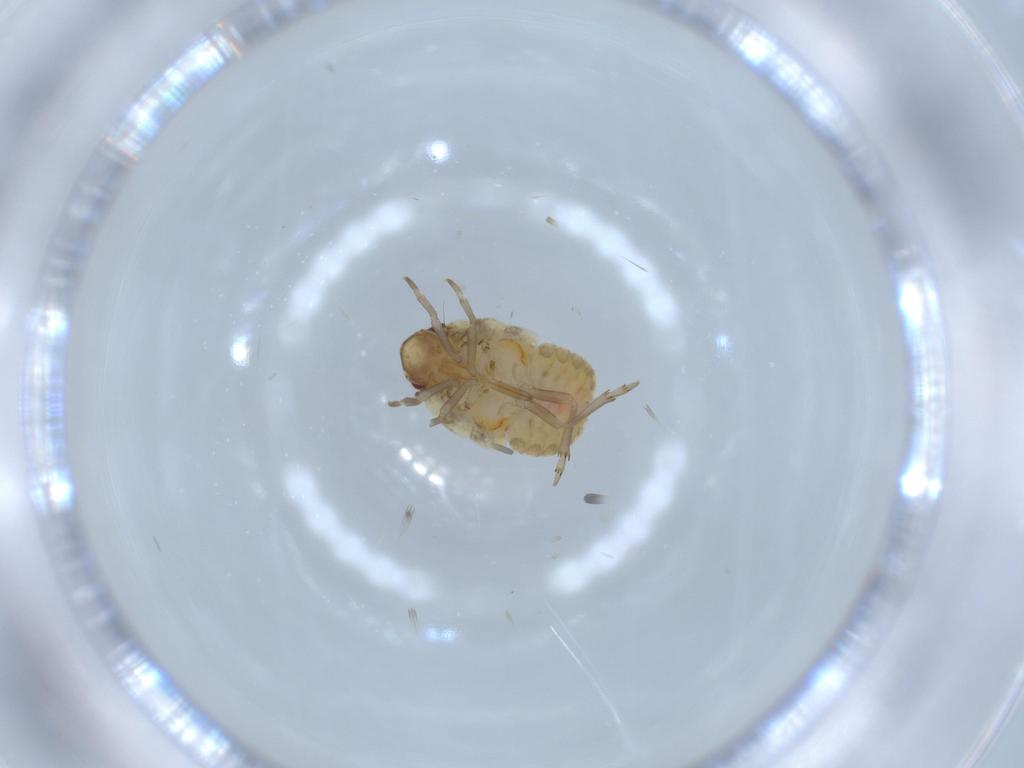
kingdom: Animalia
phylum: Arthropoda
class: Insecta
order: Hemiptera
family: Flatidae
